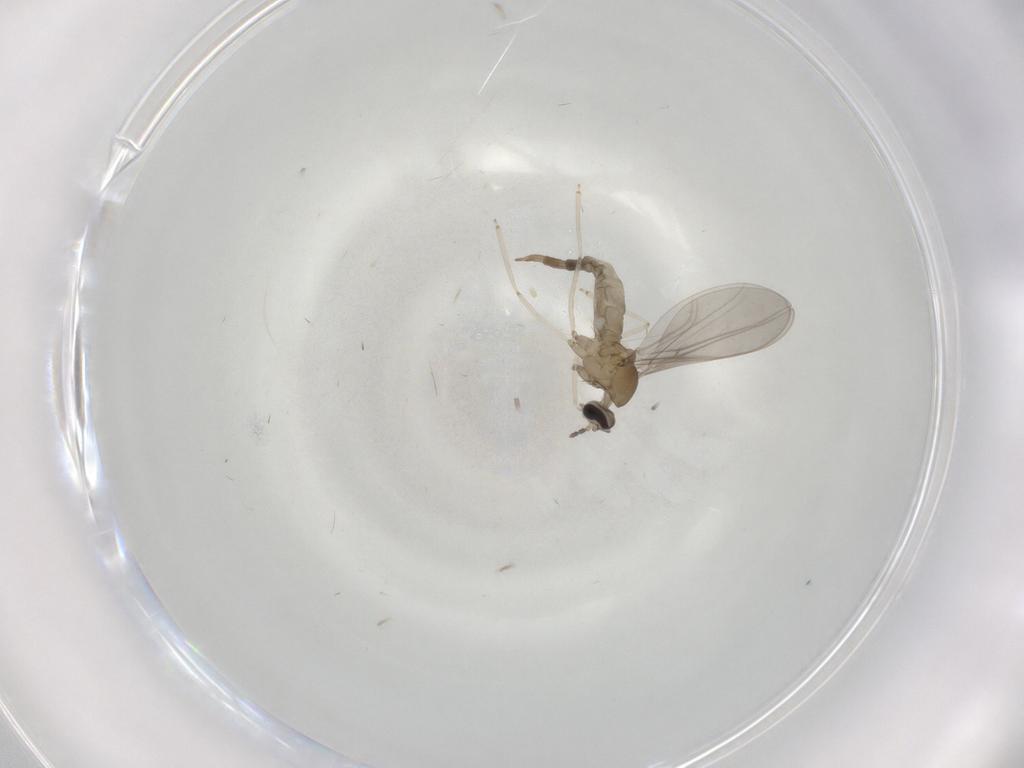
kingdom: Animalia
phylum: Arthropoda
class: Insecta
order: Diptera
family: Cecidomyiidae
